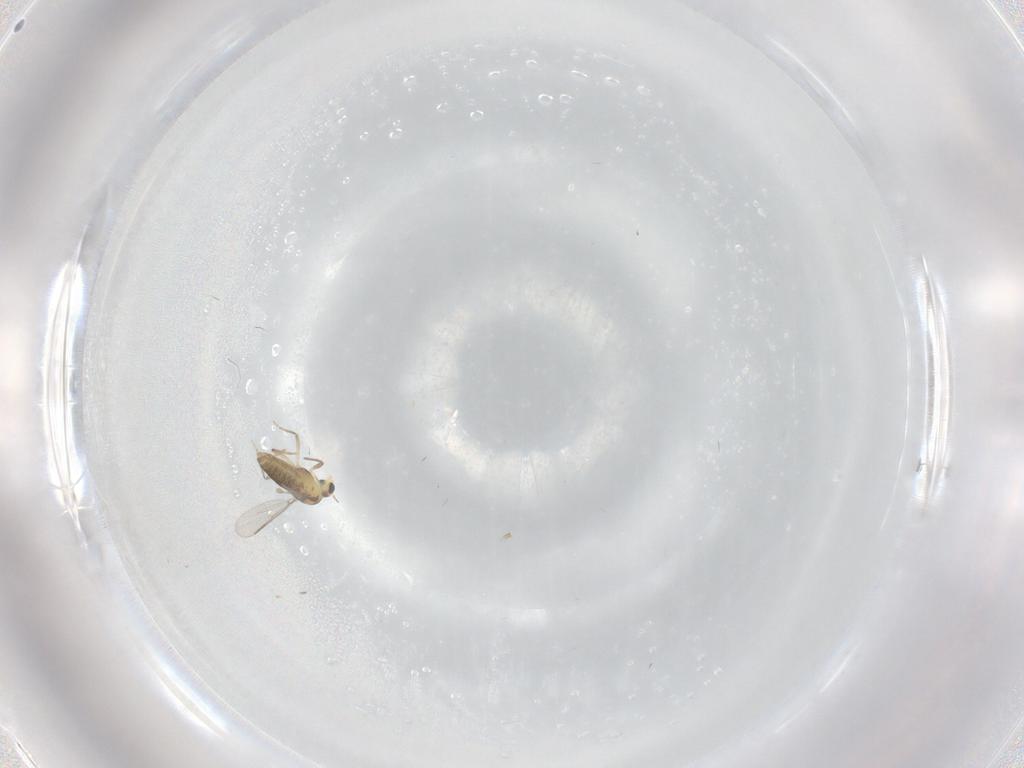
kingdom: Animalia
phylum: Arthropoda
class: Insecta
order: Diptera
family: Chironomidae
